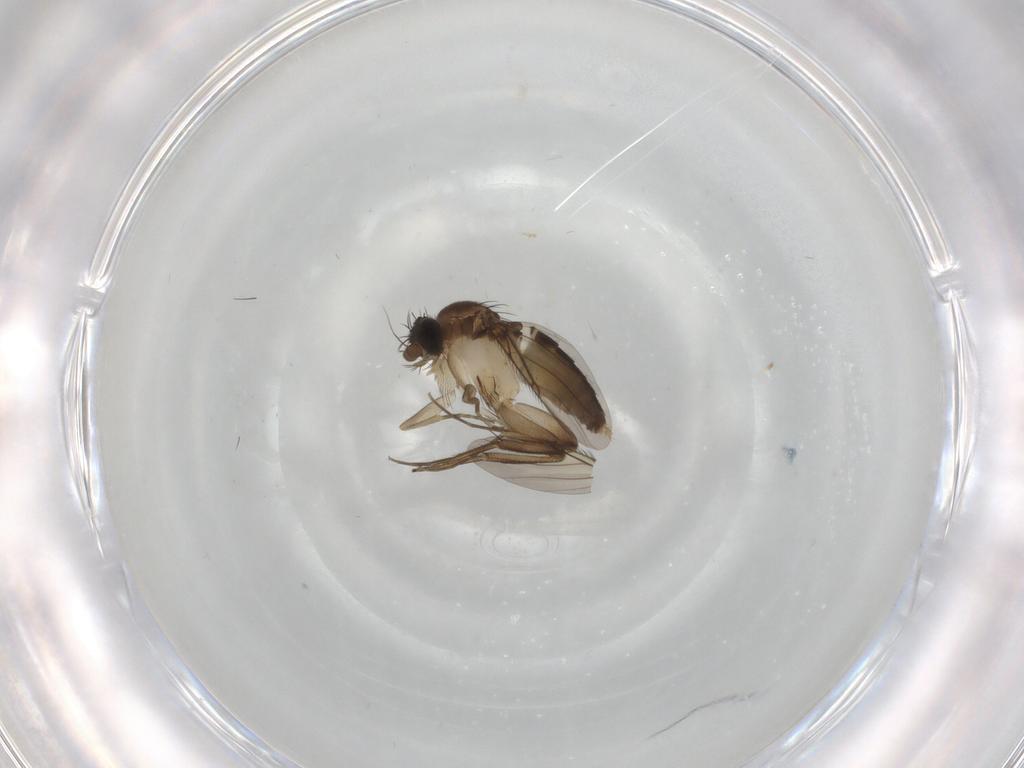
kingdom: Animalia
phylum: Arthropoda
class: Insecta
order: Diptera
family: Phoridae
